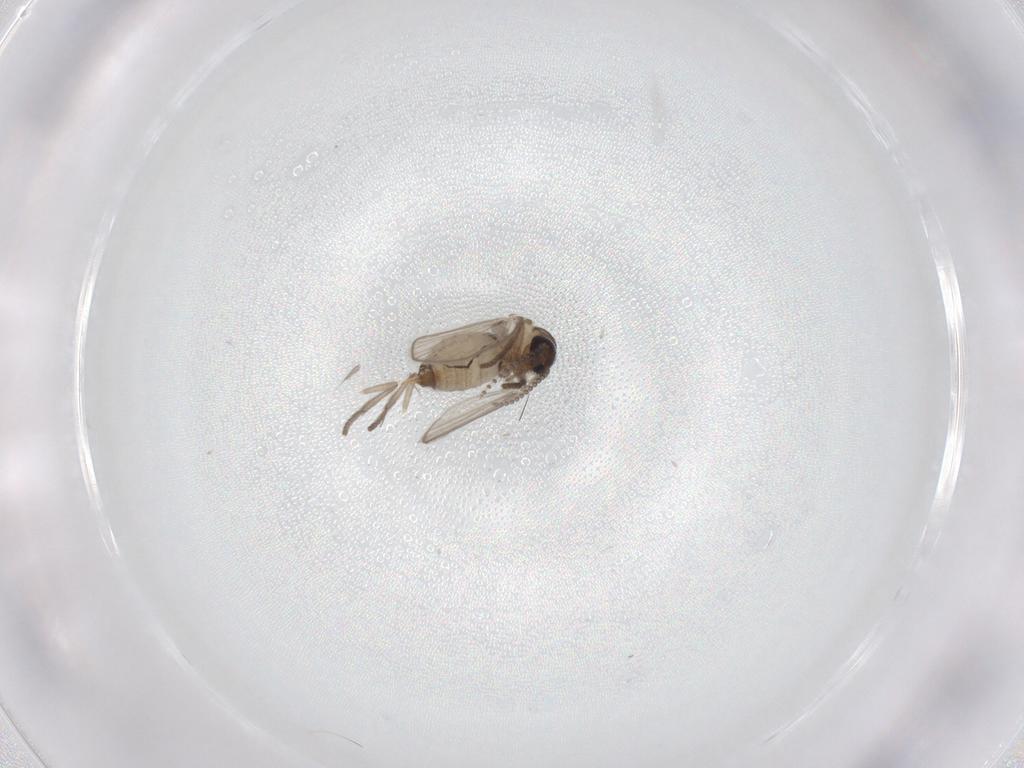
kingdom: Animalia
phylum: Arthropoda
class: Insecta
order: Diptera
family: Psychodidae
